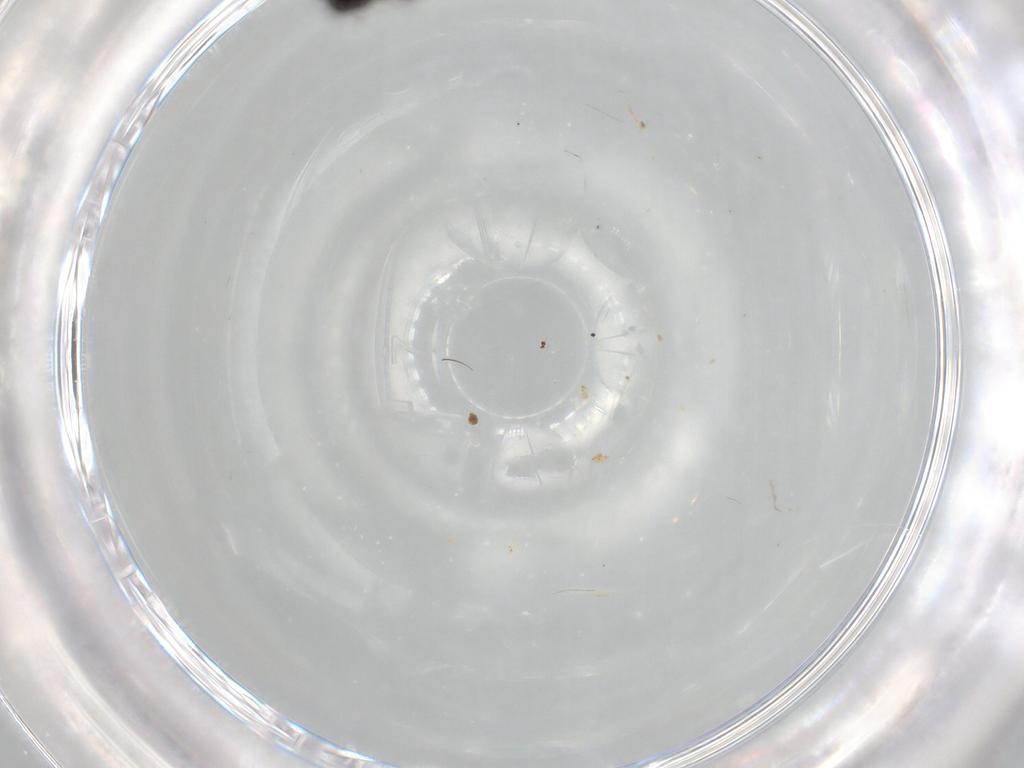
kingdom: Animalia
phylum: Arthropoda
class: Insecta
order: Diptera
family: Chironomidae
